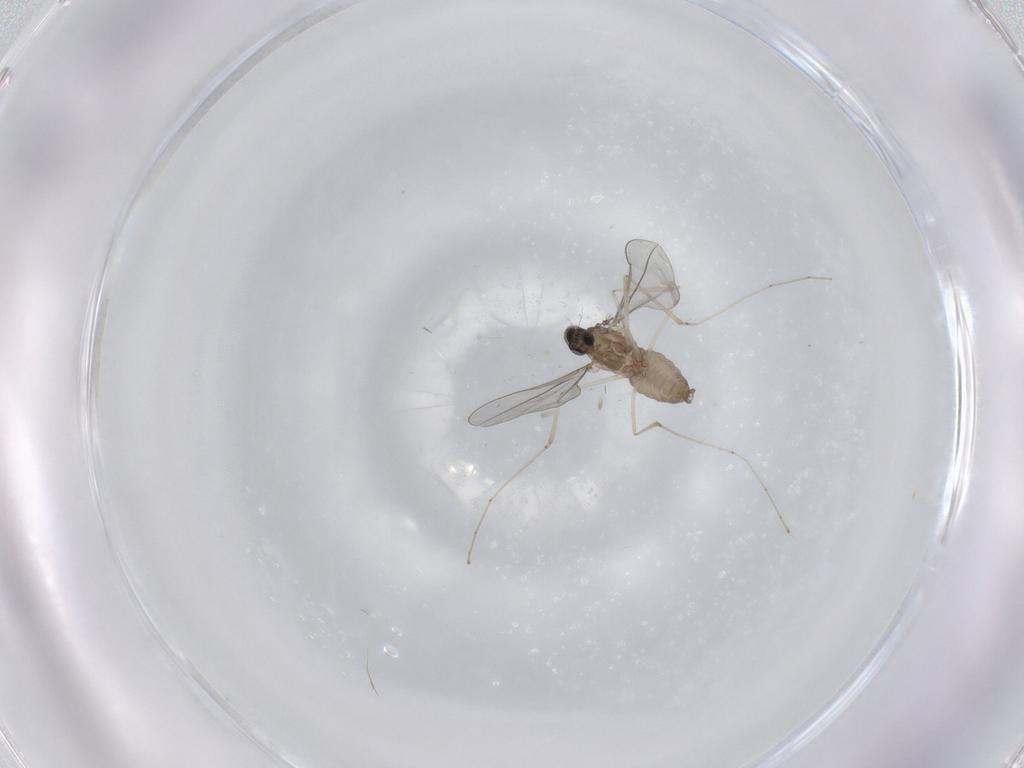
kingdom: Animalia
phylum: Arthropoda
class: Insecta
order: Diptera
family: Cecidomyiidae
